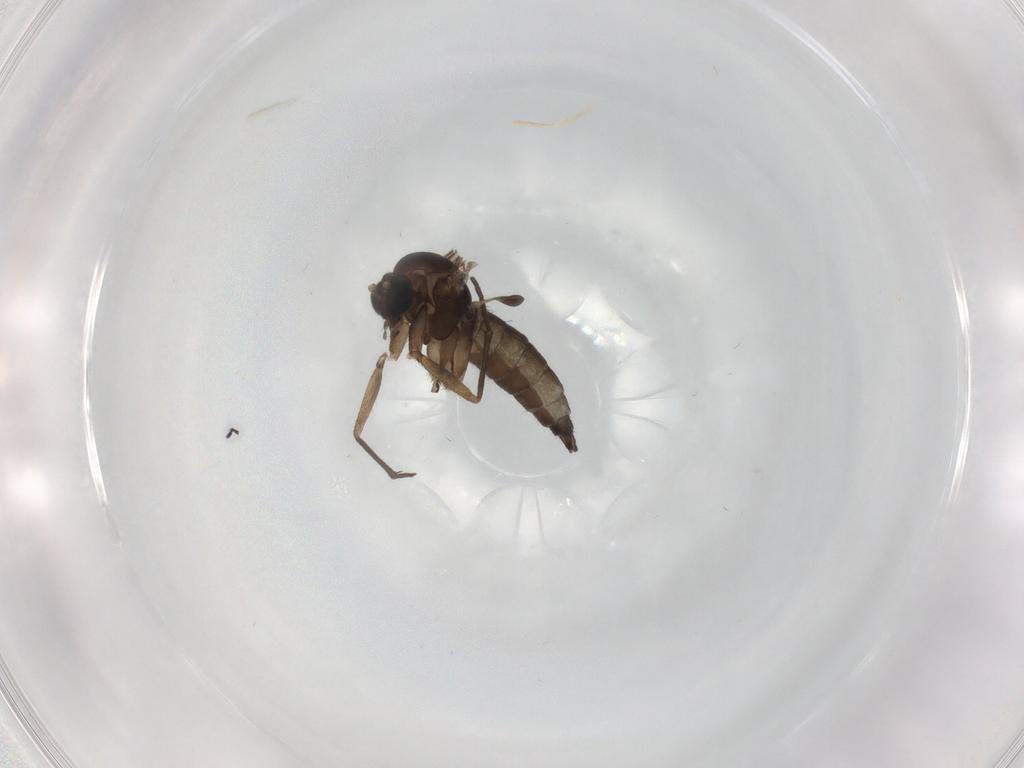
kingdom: Animalia
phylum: Arthropoda
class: Insecta
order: Diptera
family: Sciaridae
